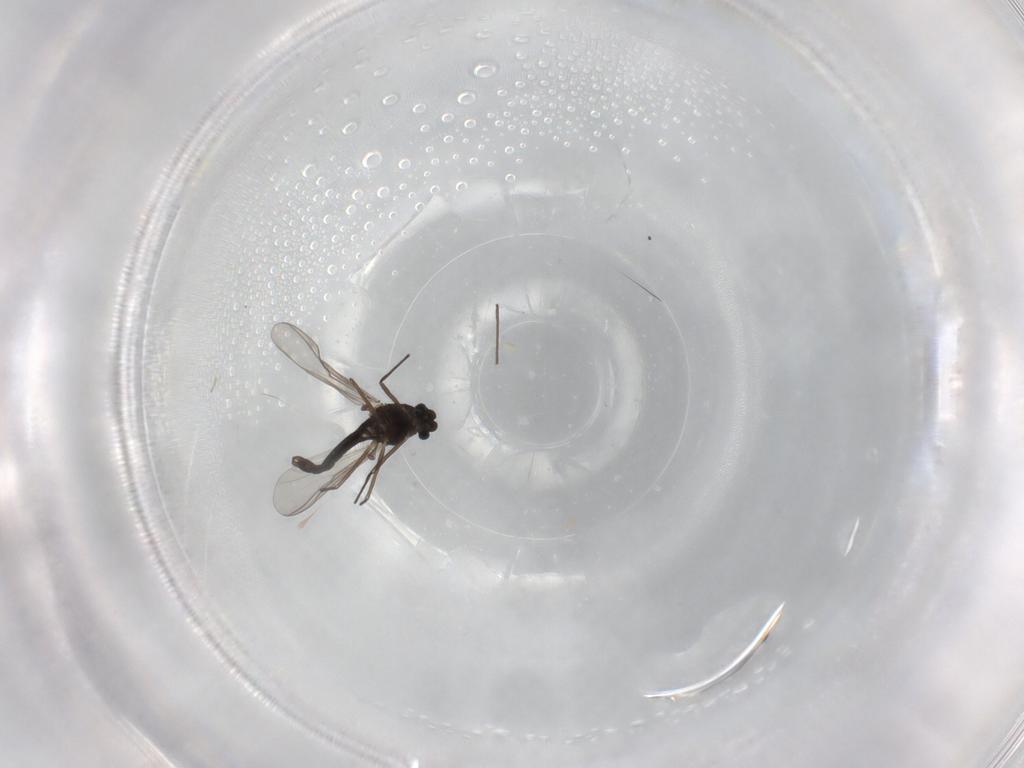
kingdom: Animalia
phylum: Arthropoda
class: Insecta
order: Diptera
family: Chironomidae
